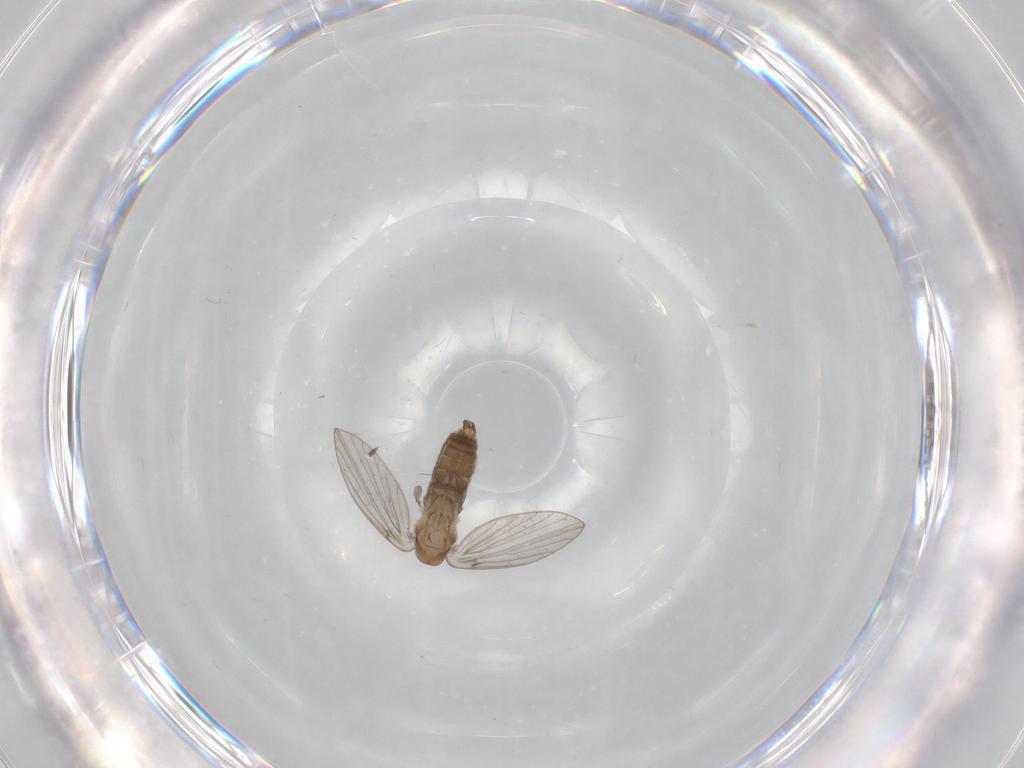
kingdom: Animalia
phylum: Arthropoda
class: Insecta
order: Diptera
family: Psychodidae
